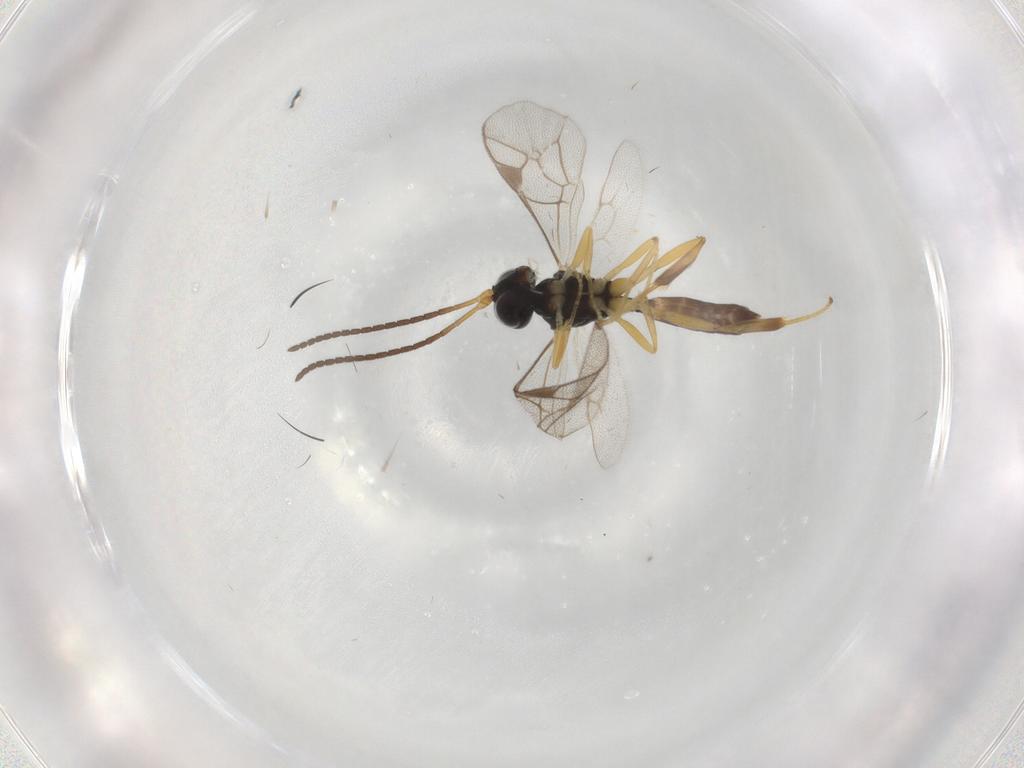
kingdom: Animalia
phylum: Arthropoda
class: Insecta
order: Hymenoptera
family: Ichneumonidae
